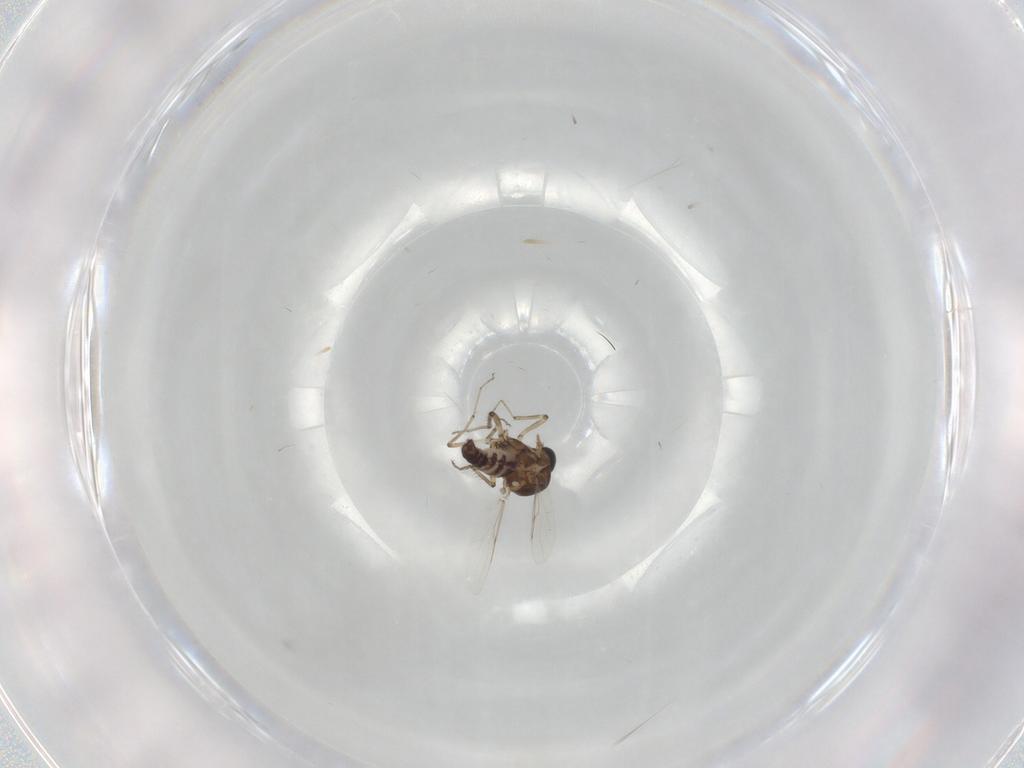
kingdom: Animalia
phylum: Arthropoda
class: Insecta
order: Diptera
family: Ceratopogonidae
